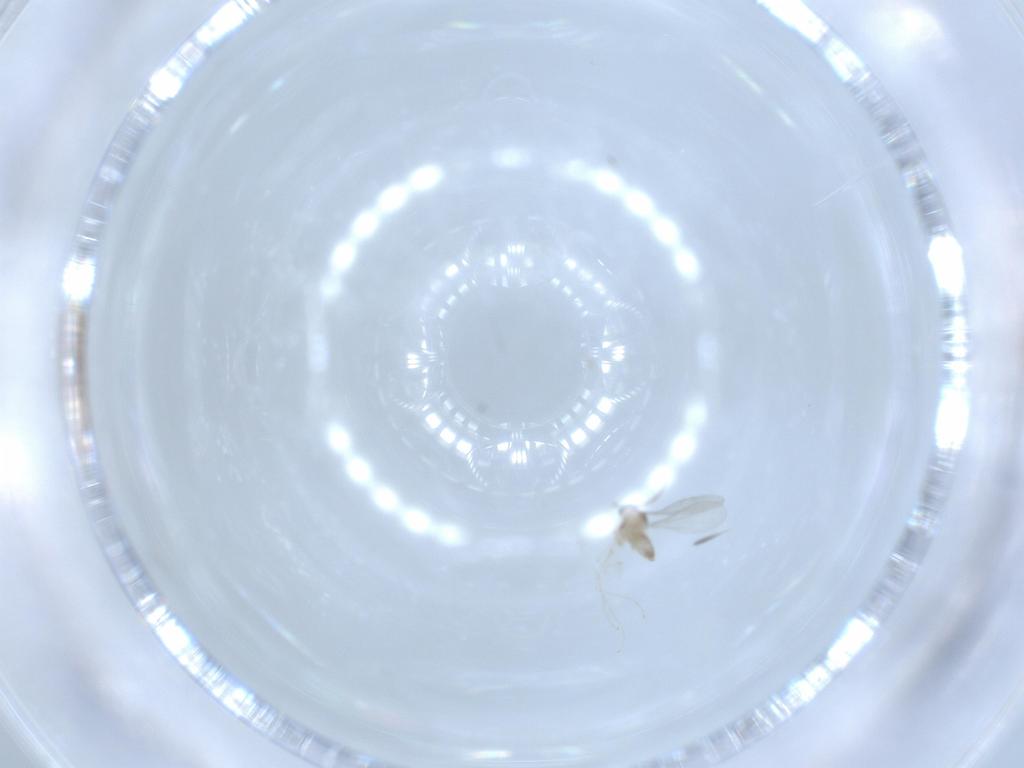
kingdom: Animalia
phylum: Arthropoda
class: Insecta
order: Diptera
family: Cecidomyiidae
